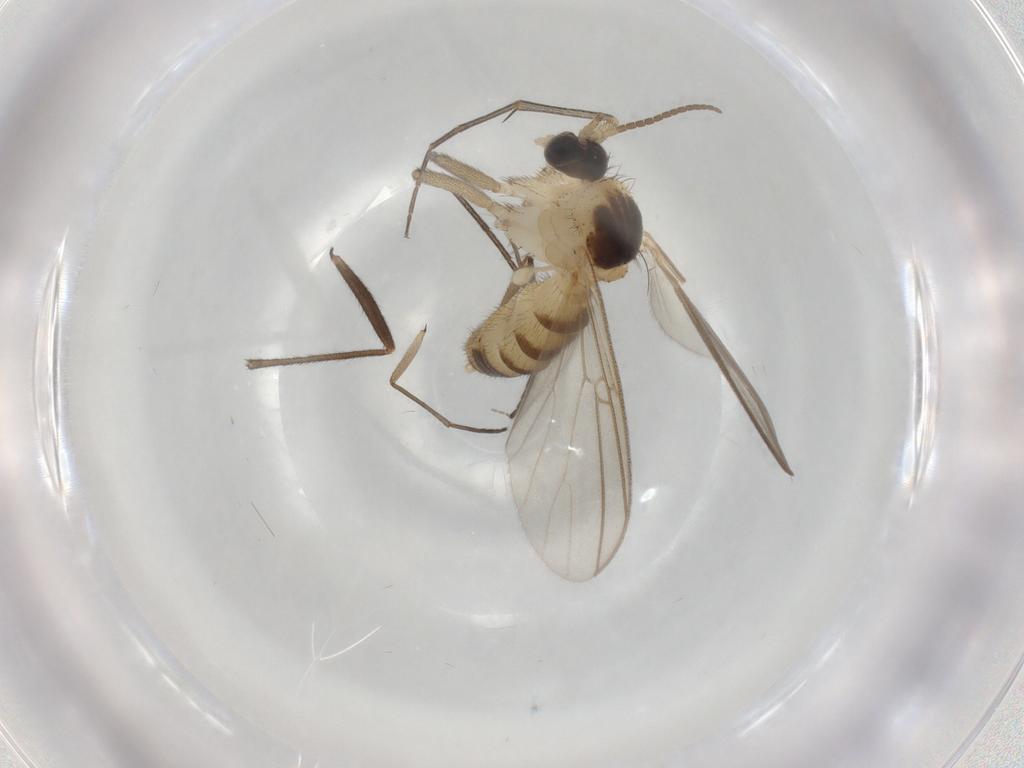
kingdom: Animalia
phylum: Arthropoda
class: Insecta
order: Diptera
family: Mycetophilidae
